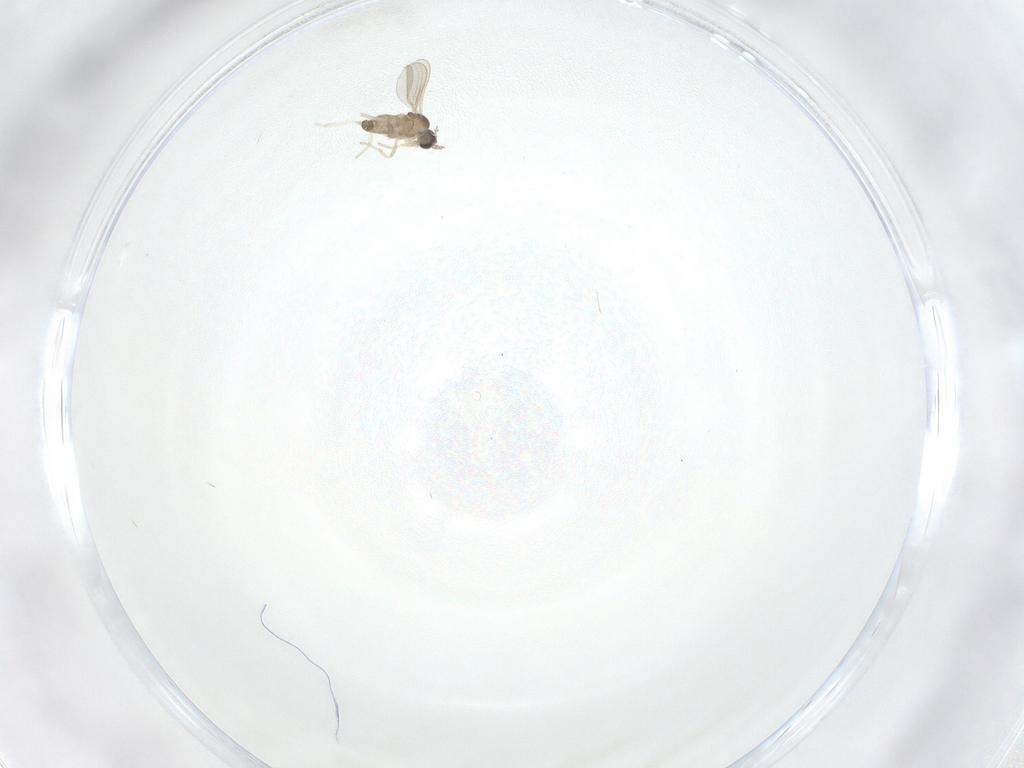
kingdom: Animalia
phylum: Arthropoda
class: Insecta
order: Diptera
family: Cecidomyiidae
